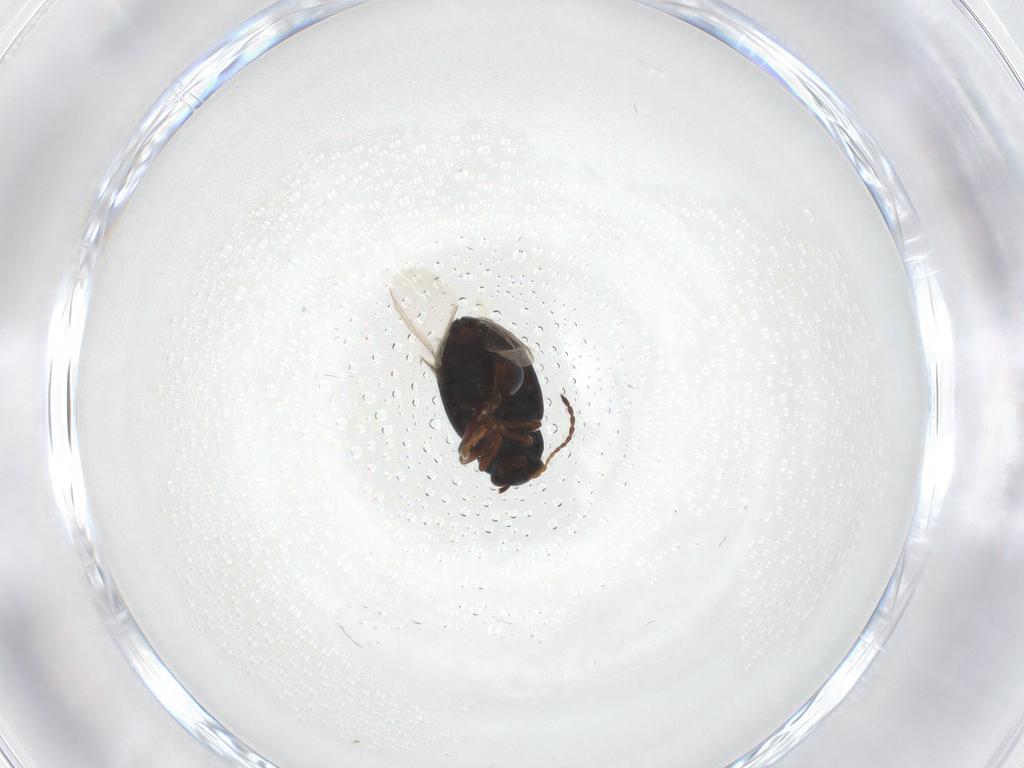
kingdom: Animalia
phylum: Arthropoda
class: Insecta
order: Coleoptera
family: Chrysomelidae
